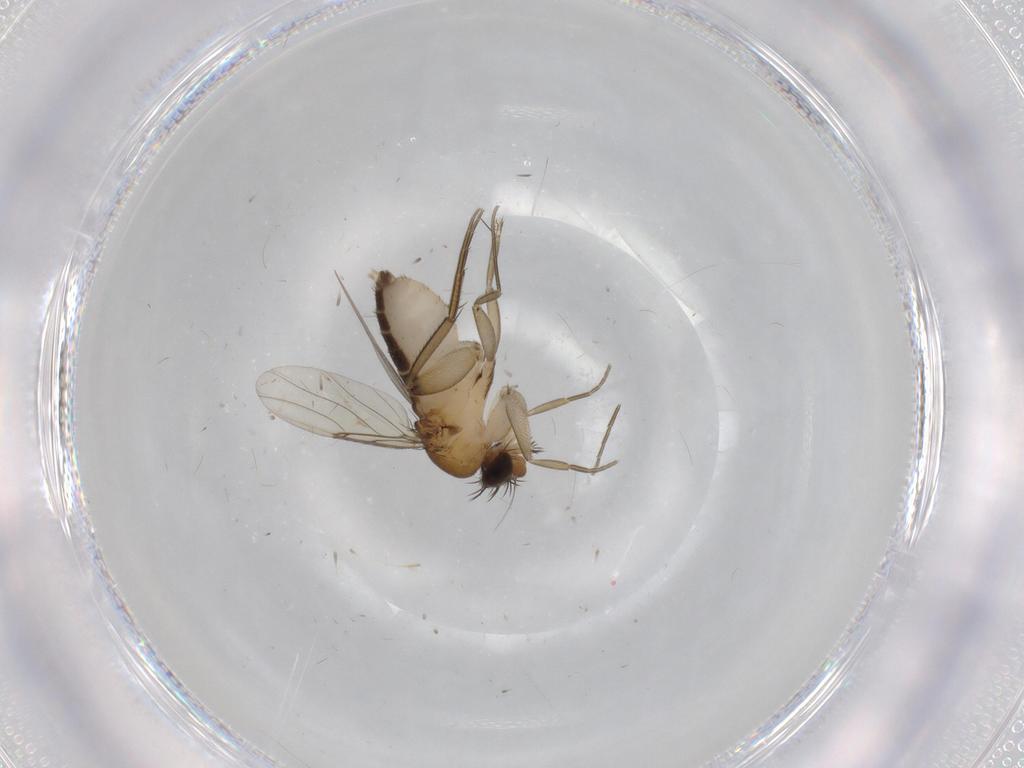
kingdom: Animalia
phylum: Arthropoda
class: Insecta
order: Diptera
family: Phoridae
